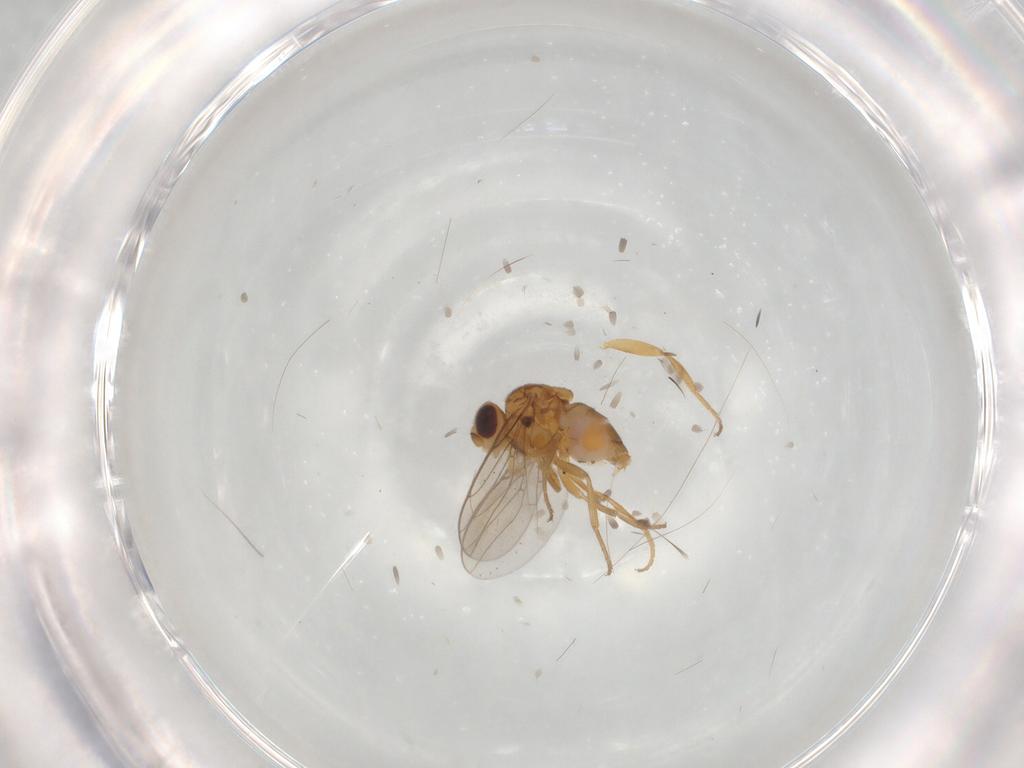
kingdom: Animalia
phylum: Arthropoda
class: Insecta
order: Diptera
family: Chloropidae
